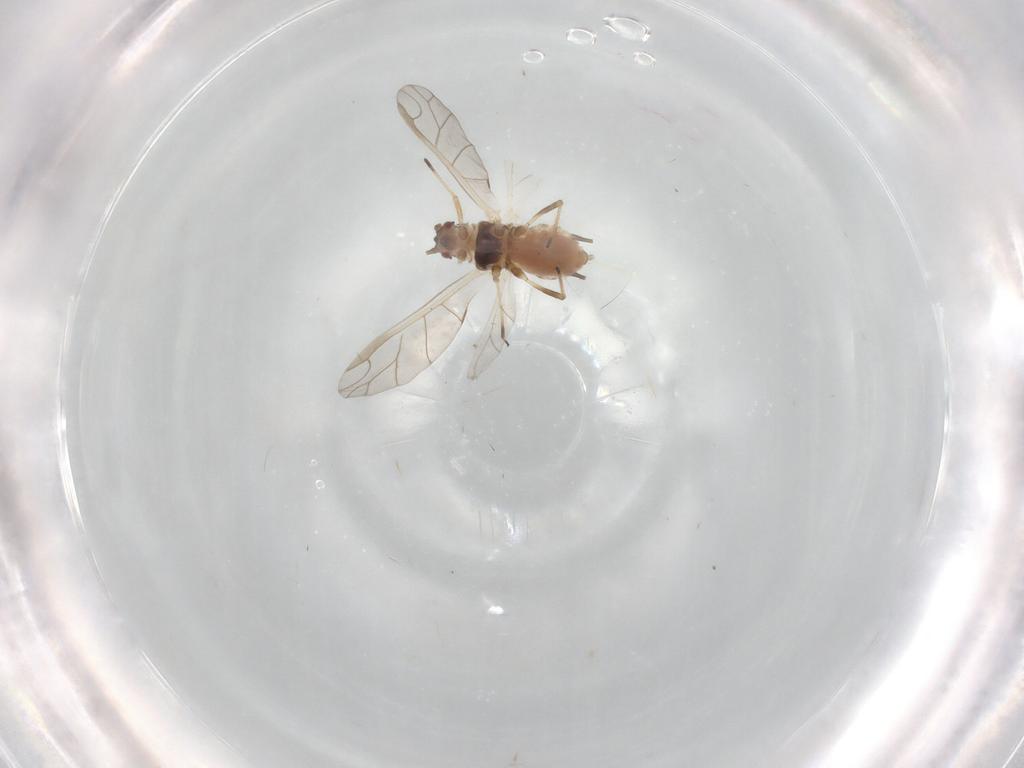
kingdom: Animalia
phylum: Arthropoda
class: Insecta
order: Hemiptera
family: Aphididae
